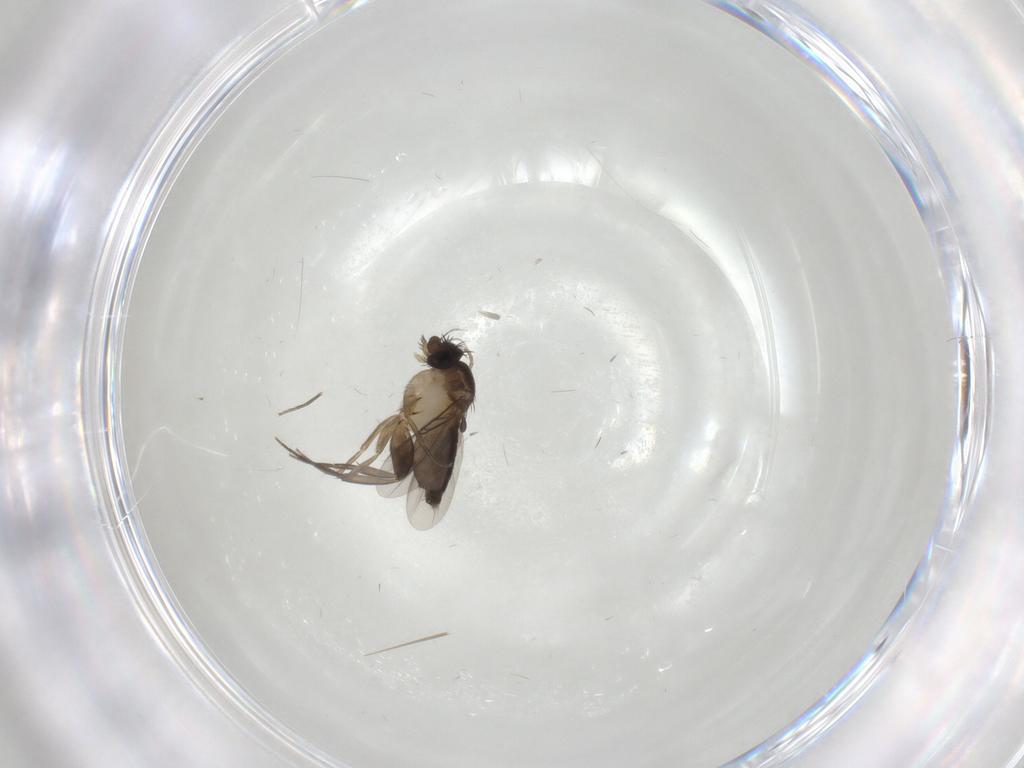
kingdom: Animalia
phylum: Arthropoda
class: Insecta
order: Diptera
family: Phoridae
